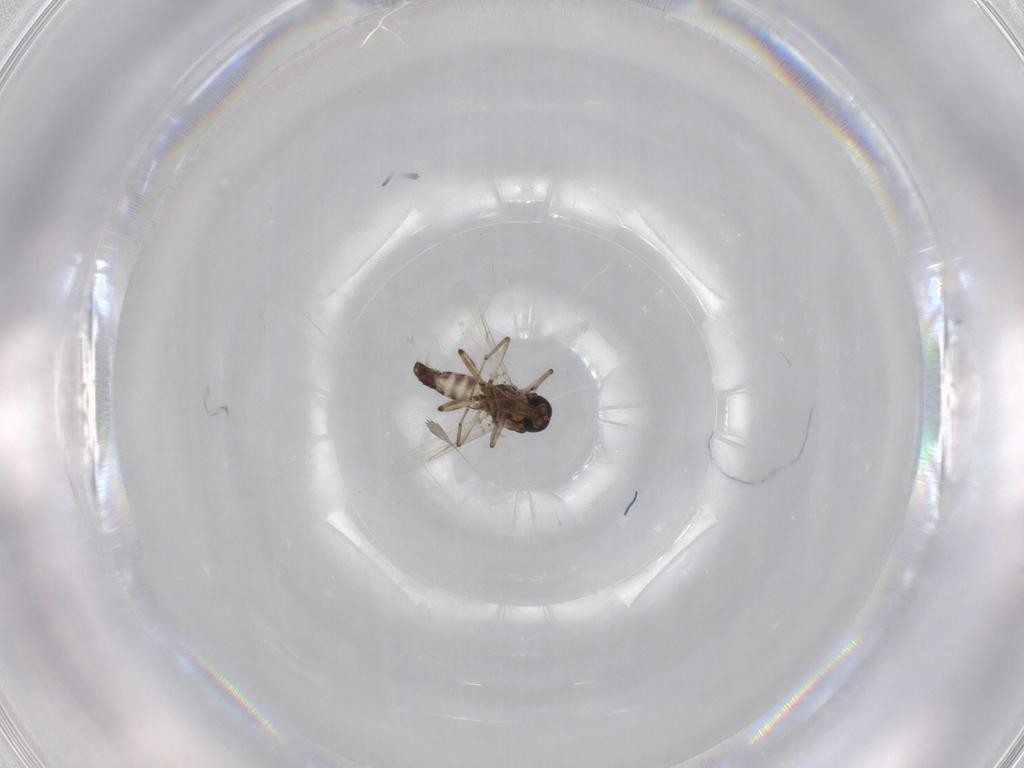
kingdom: Animalia
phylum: Arthropoda
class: Insecta
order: Diptera
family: Ceratopogonidae
